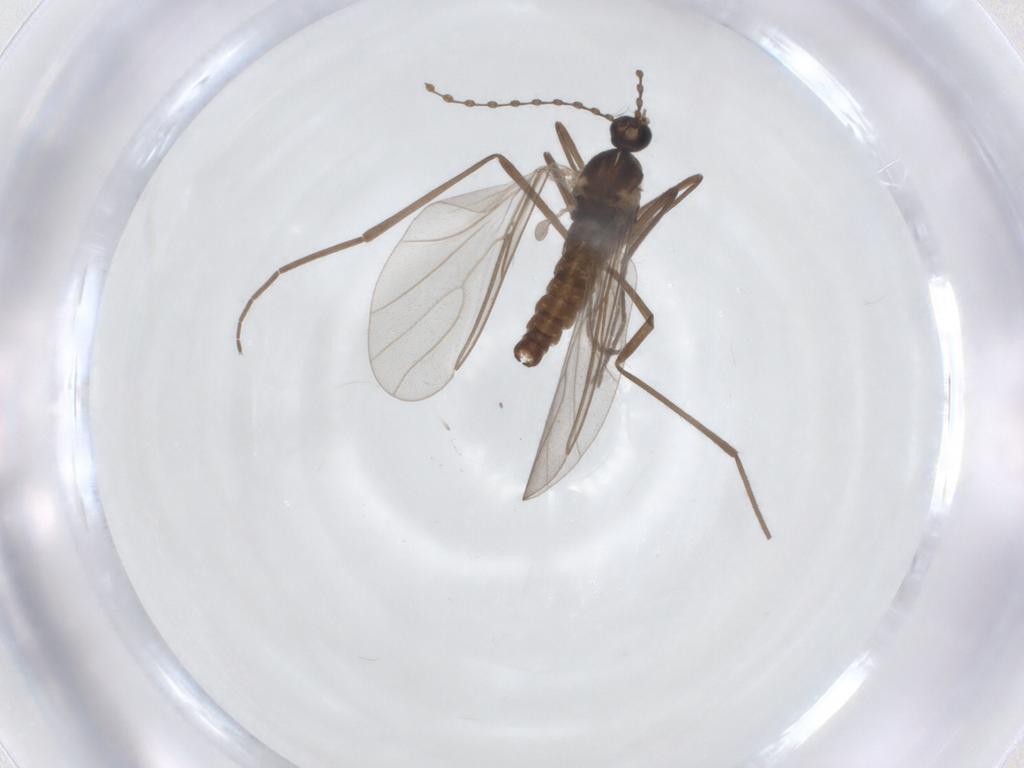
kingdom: Animalia
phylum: Arthropoda
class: Insecta
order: Diptera
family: Cecidomyiidae
